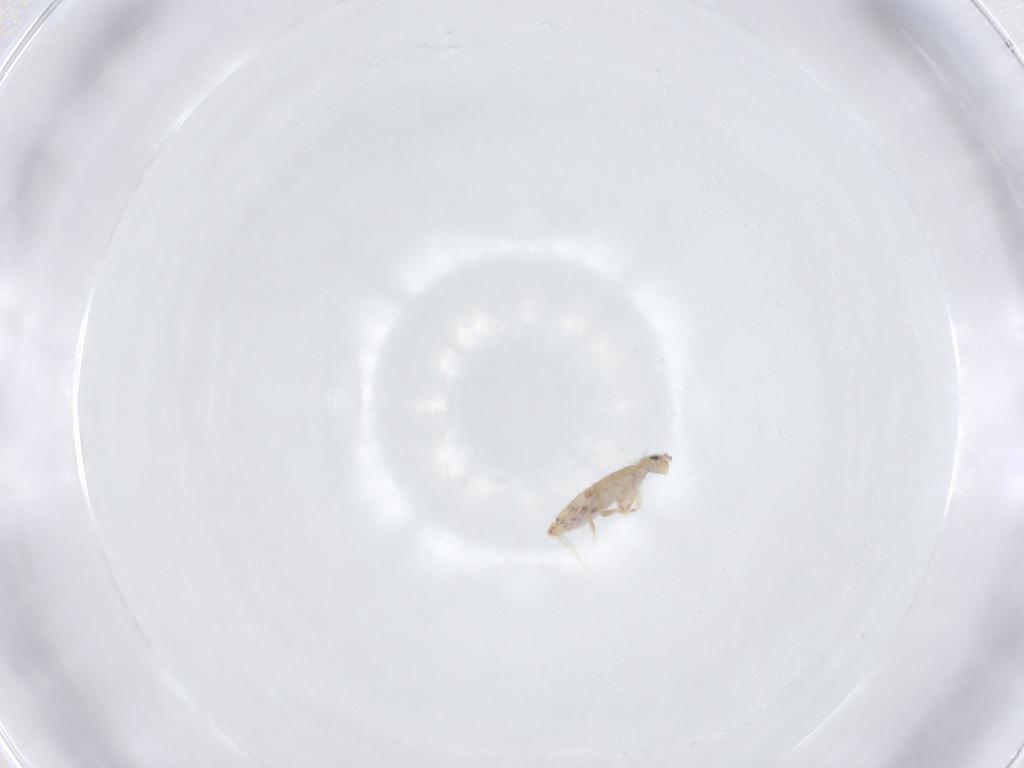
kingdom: Animalia
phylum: Arthropoda
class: Collembola
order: Entomobryomorpha
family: Entomobryidae
